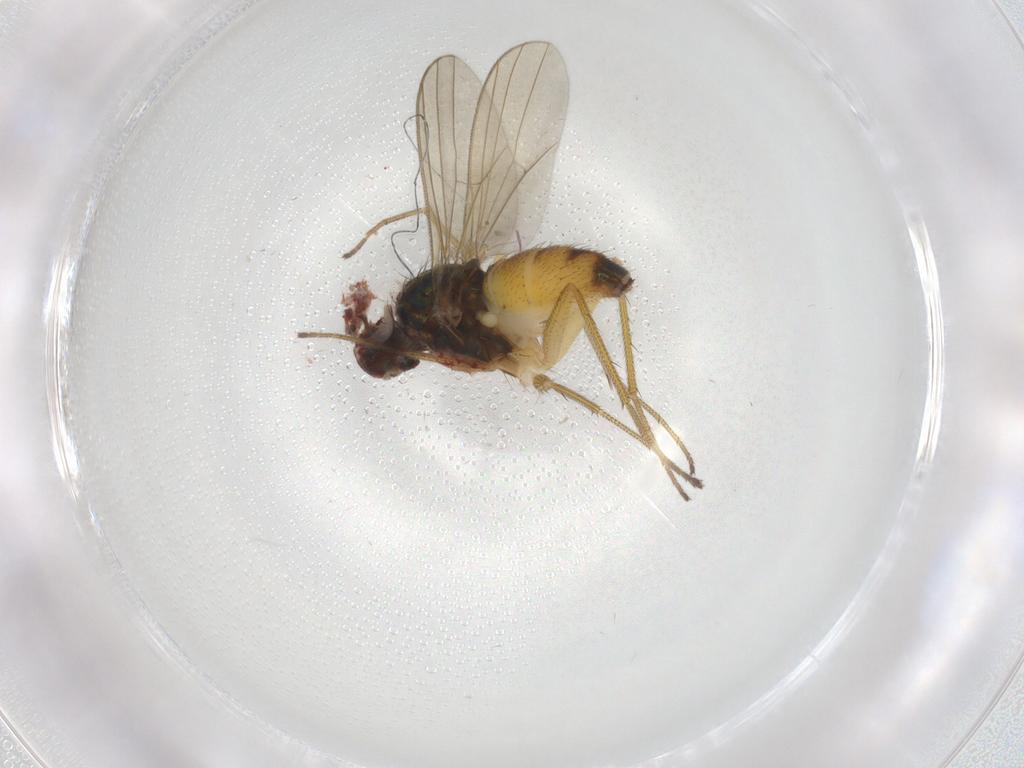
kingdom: Animalia
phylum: Arthropoda
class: Insecta
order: Diptera
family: Dolichopodidae
